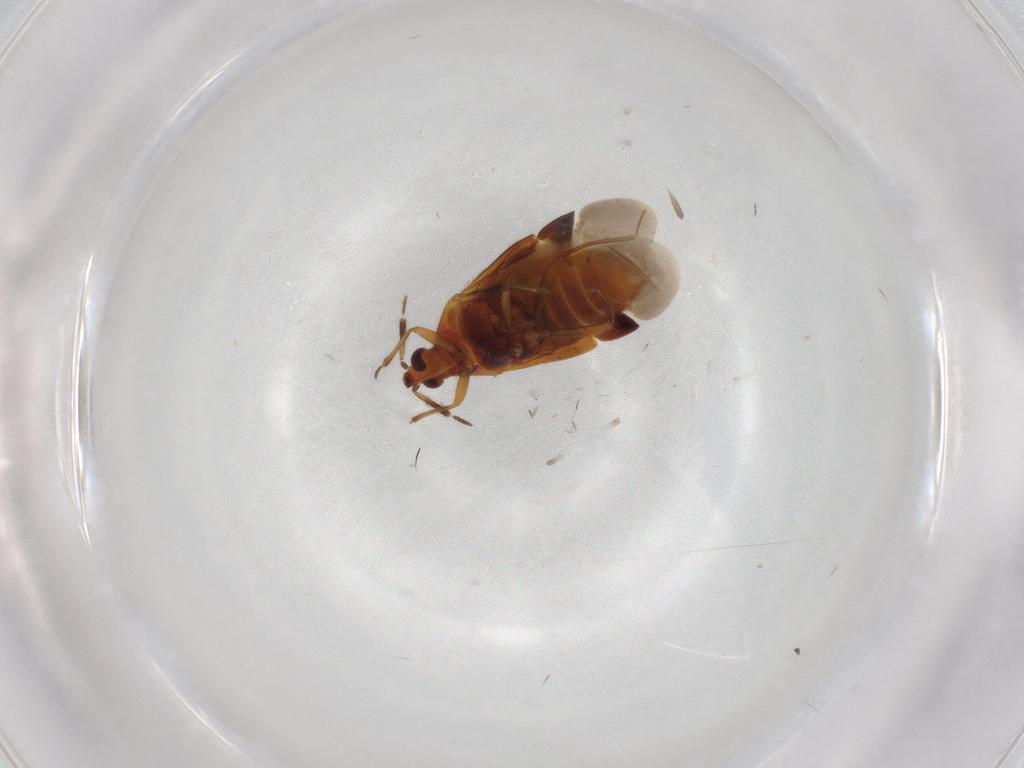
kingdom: Animalia
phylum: Arthropoda
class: Insecta
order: Hemiptera
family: Anthocoridae
